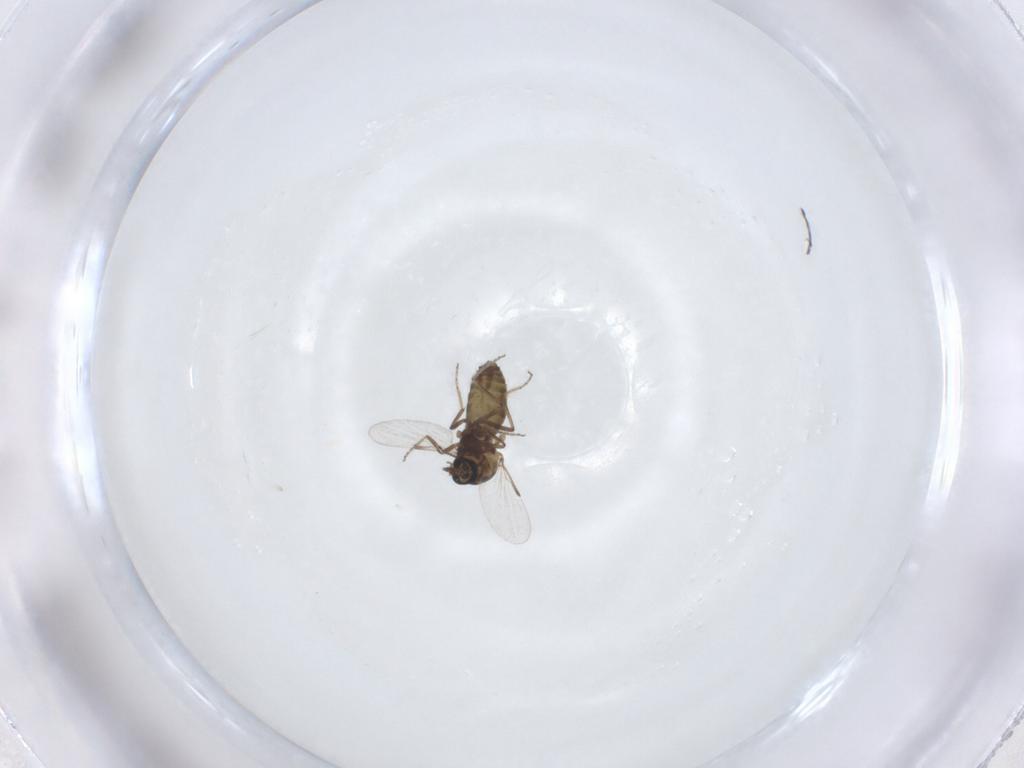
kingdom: Animalia
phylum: Arthropoda
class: Insecta
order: Diptera
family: Ceratopogonidae
